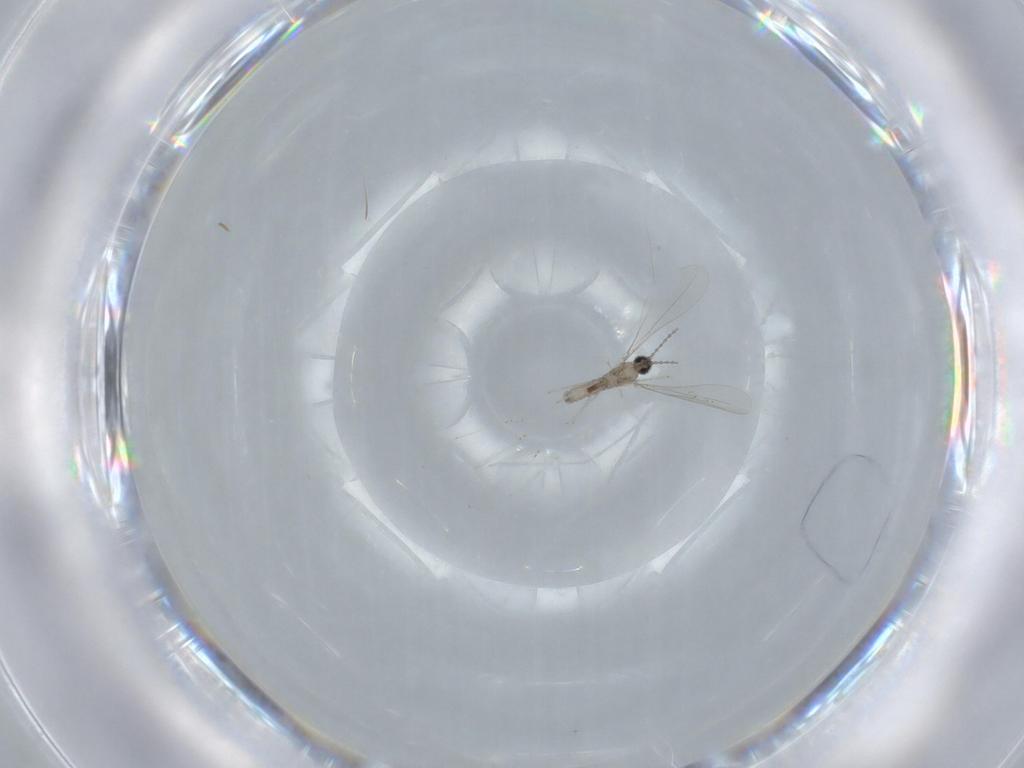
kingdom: Animalia
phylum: Arthropoda
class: Insecta
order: Diptera
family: Cecidomyiidae
